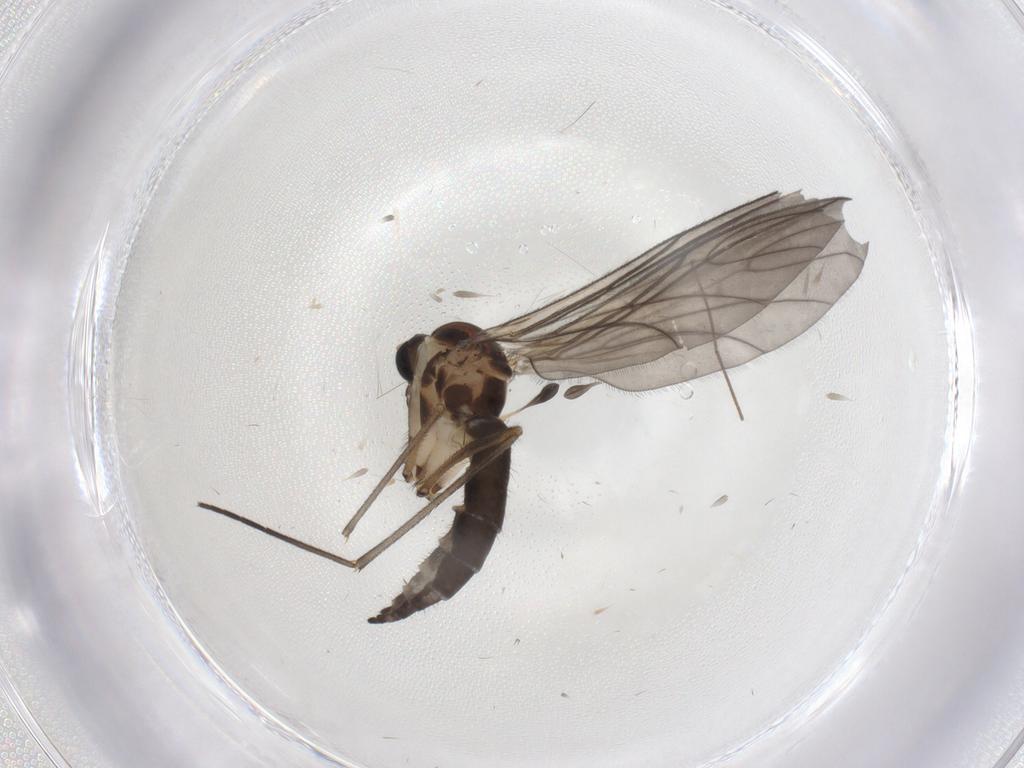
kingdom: Animalia
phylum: Arthropoda
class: Insecta
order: Diptera
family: Sciaridae
